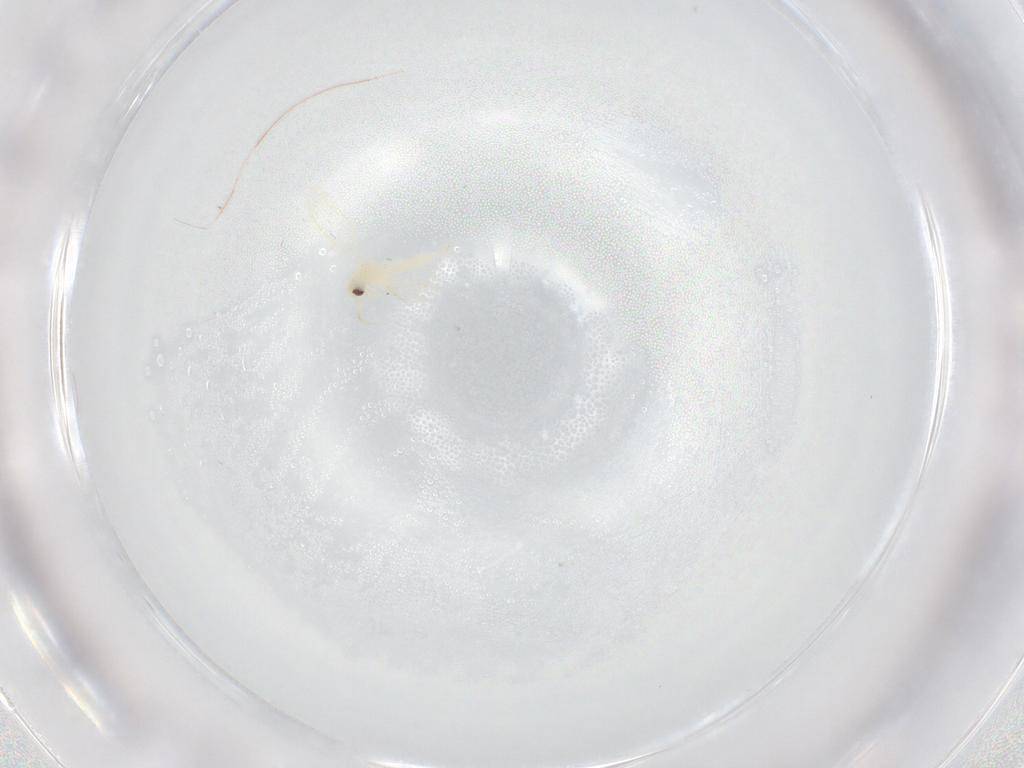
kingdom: Animalia
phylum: Arthropoda
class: Insecta
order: Hemiptera
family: Aleyrodidae
